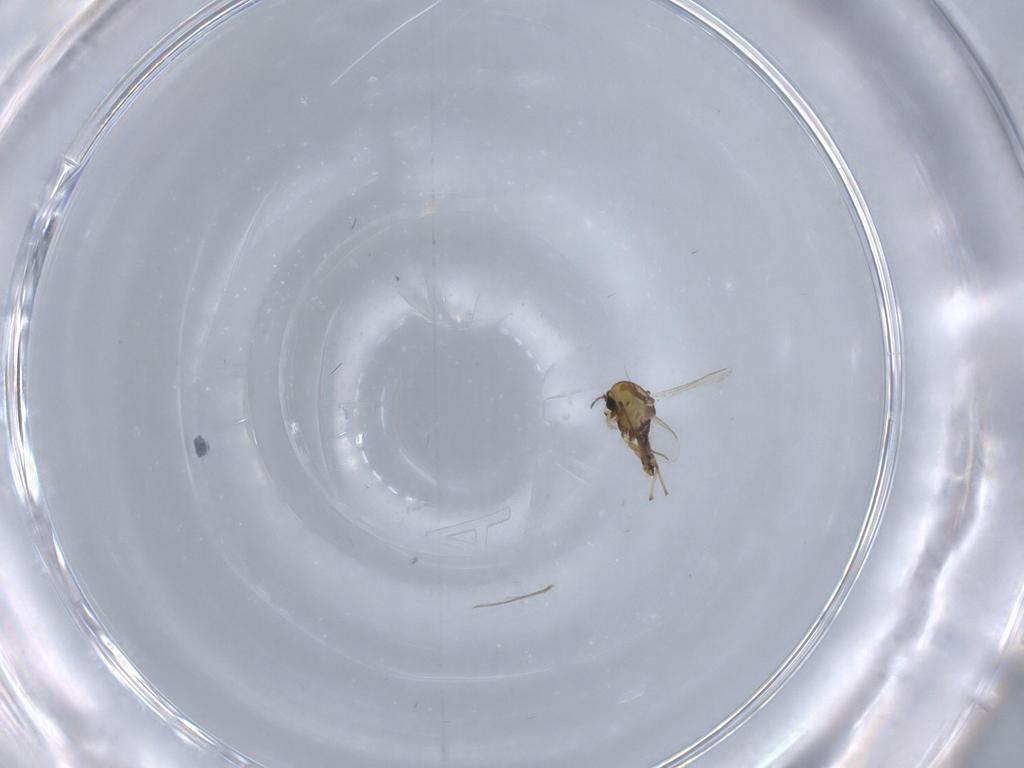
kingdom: Animalia
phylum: Arthropoda
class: Insecta
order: Diptera
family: Chironomidae
